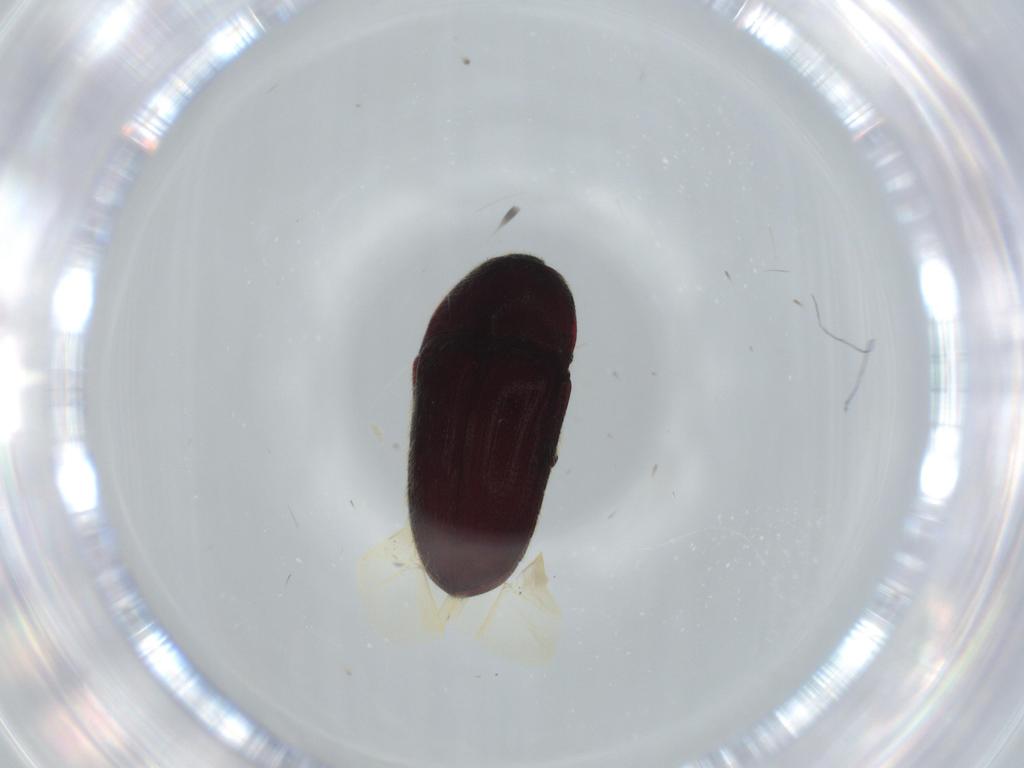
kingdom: Animalia
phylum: Arthropoda
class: Insecta
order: Coleoptera
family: Throscidae
